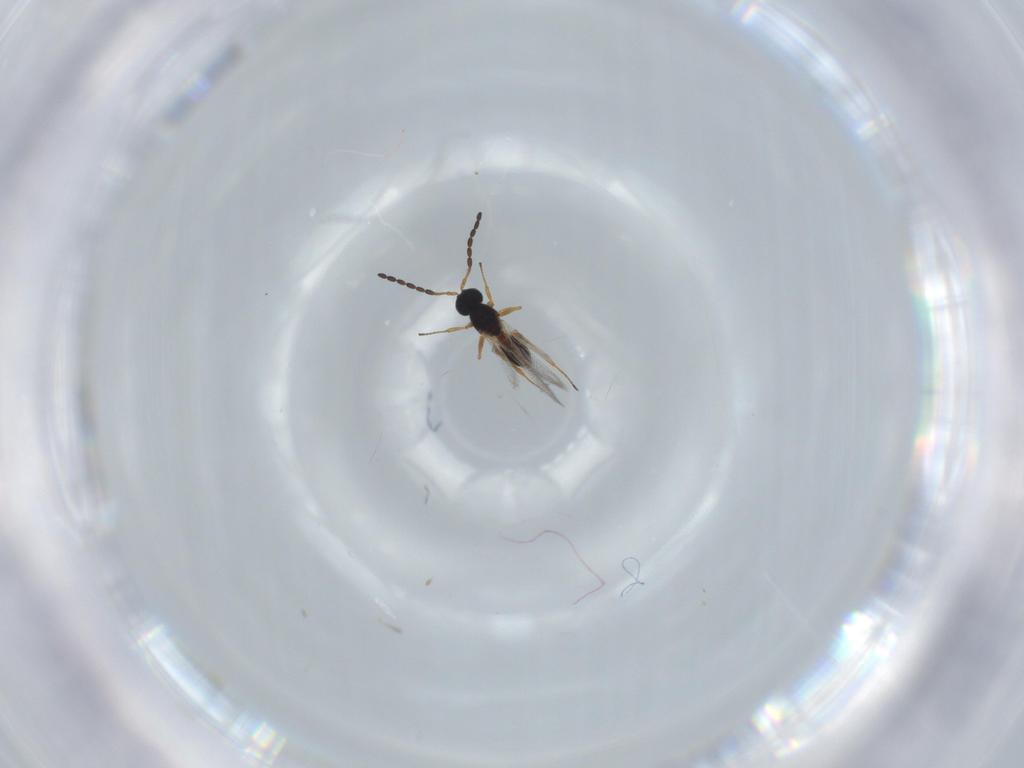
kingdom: Animalia
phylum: Arthropoda
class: Insecta
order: Hymenoptera
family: Figitidae
